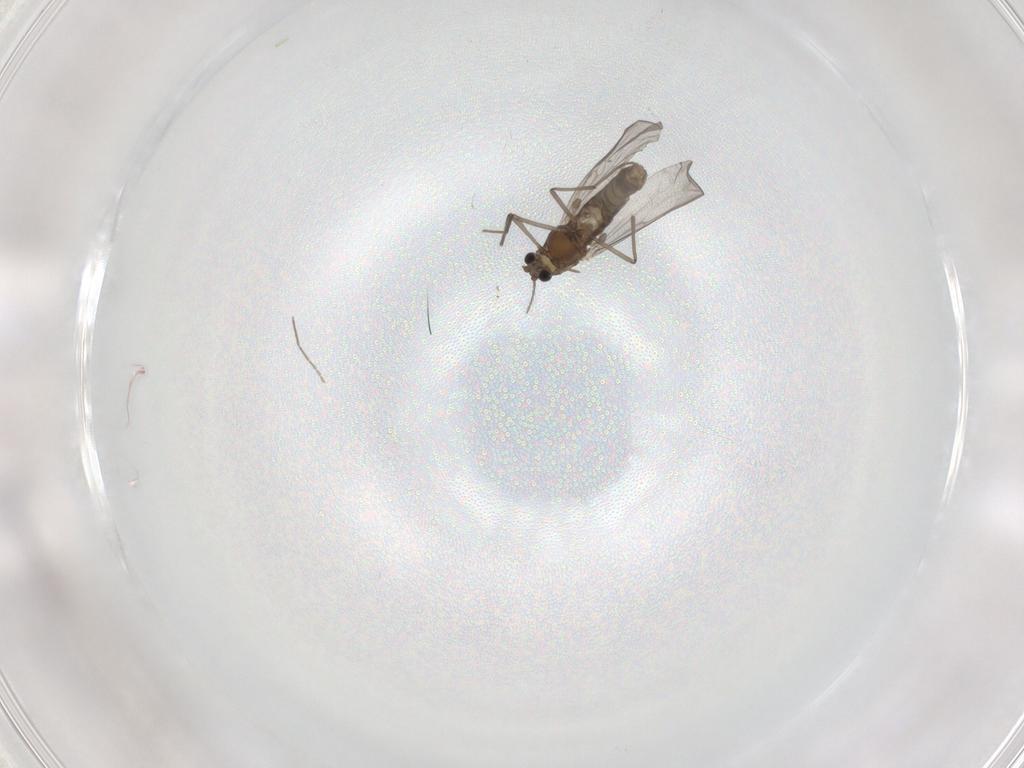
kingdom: Animalia
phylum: Arthropoda
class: Insecta
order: Diptera
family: Chironomidae
